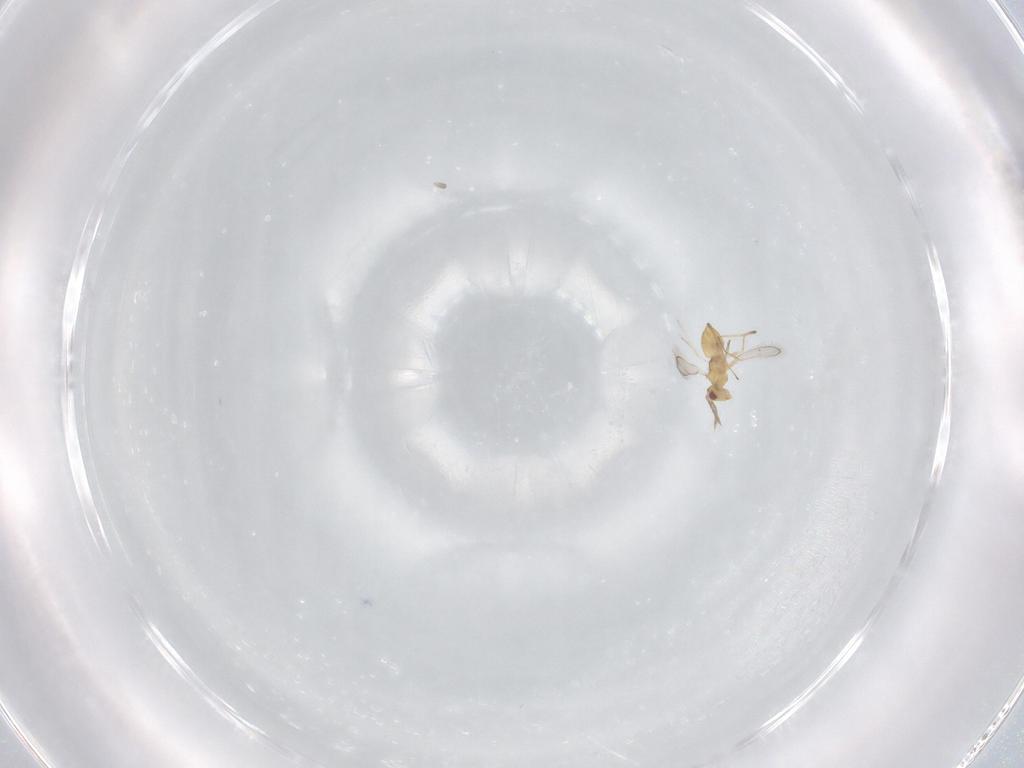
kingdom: Animalia
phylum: Arthropoda
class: Insecta
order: Hymenoptera
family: Eulophidae
